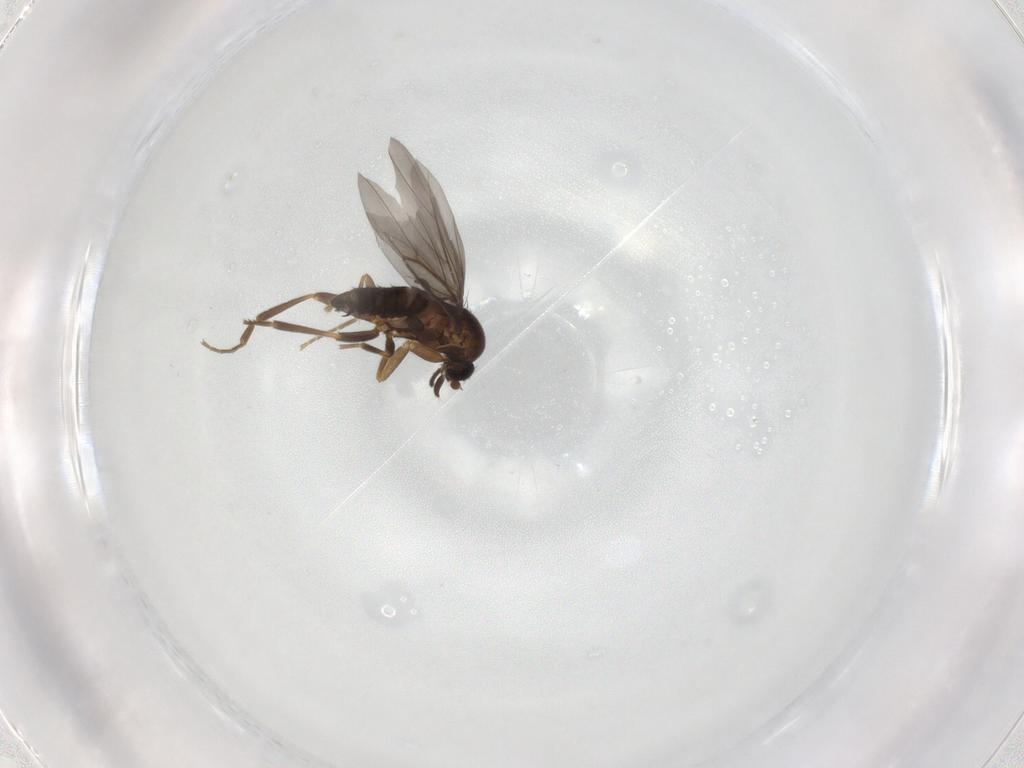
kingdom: Animalia
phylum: Arthropoda
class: Insecta
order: Diptera
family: Phoridae
